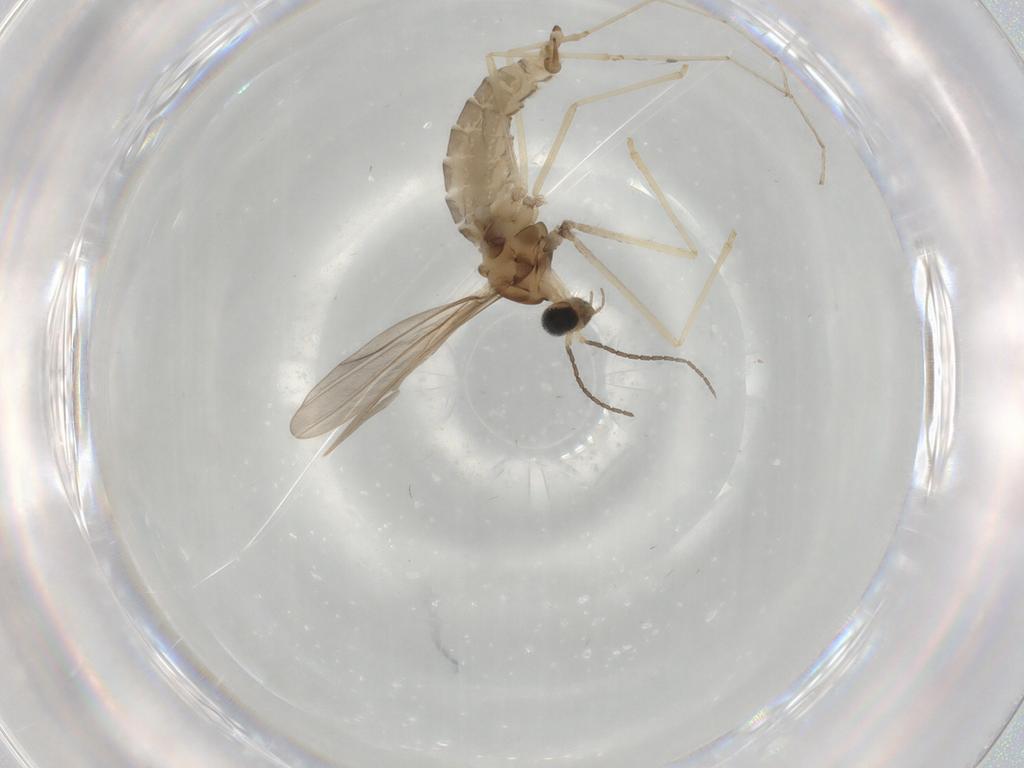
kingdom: Animalia
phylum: Arthropoda
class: Insecta
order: Diptera
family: Cecidomyiidae
